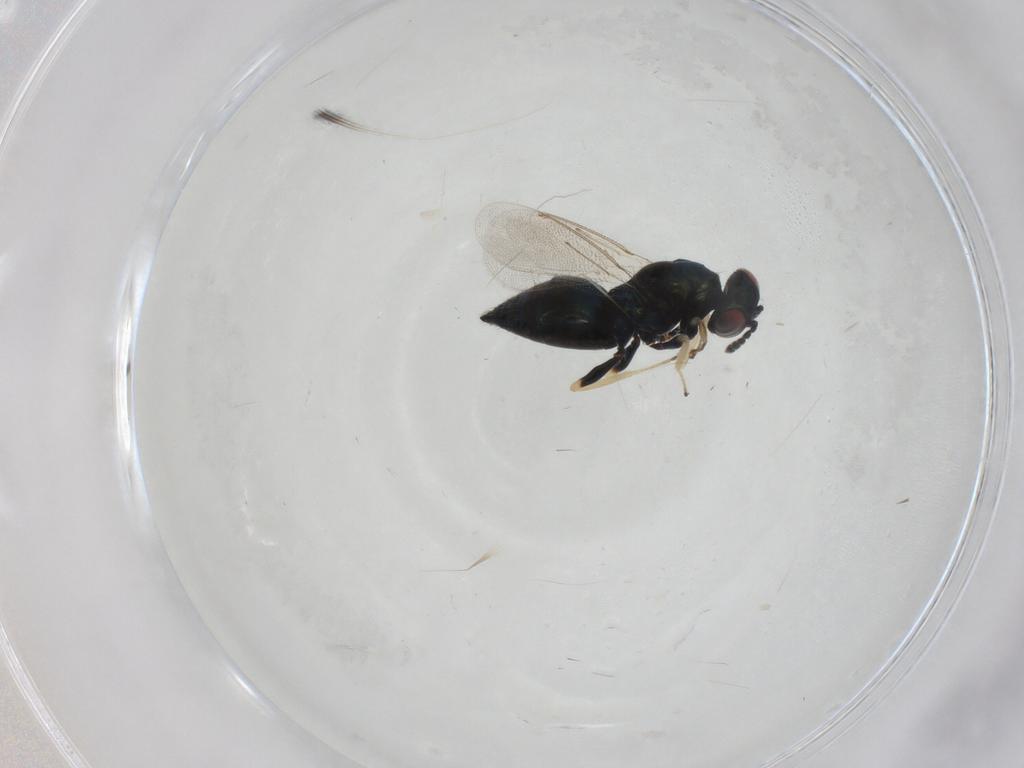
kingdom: Animalia
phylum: Arthropoda
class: Insecta
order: Hymenoptera
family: Eulophidae
